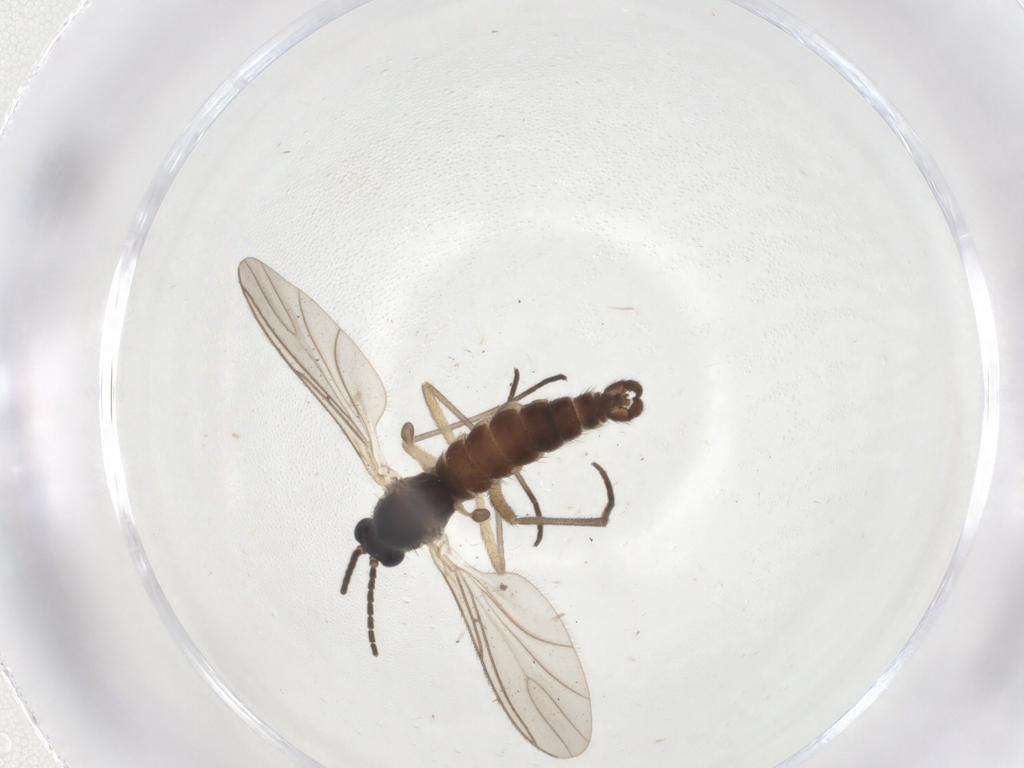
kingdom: Animalia
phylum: Arthropoda
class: Insecta
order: Diptera
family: Sciaridae
